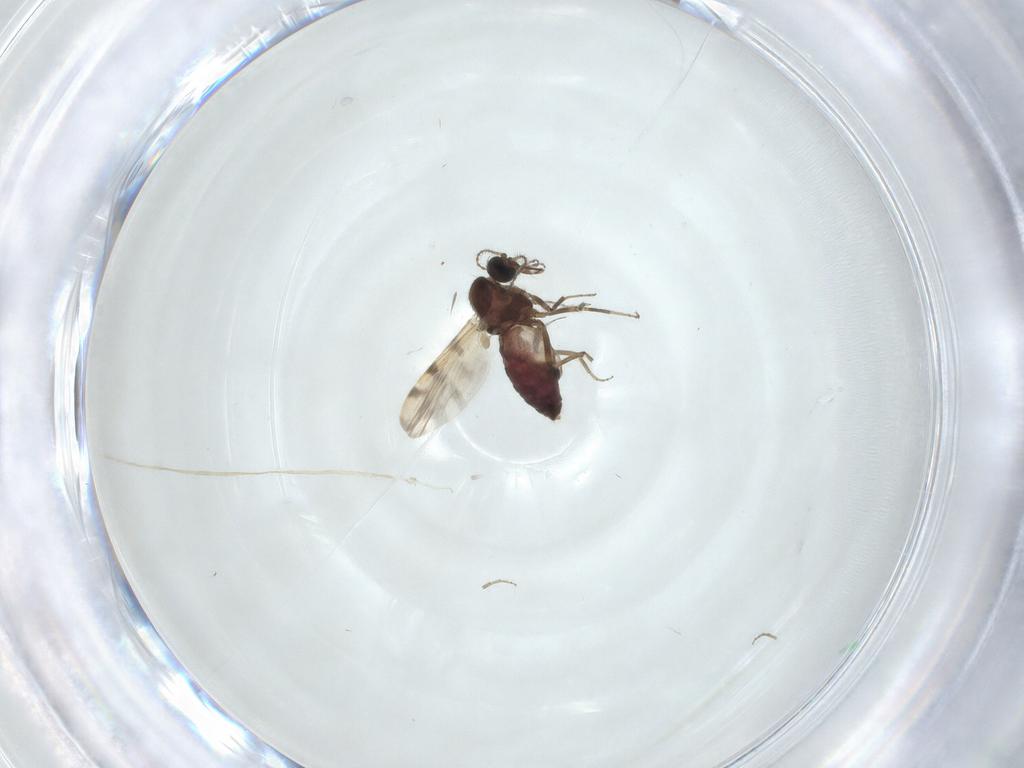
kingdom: Animalia
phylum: Arthropoda
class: Insecta
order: Diptera
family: Ceratopogonidae
